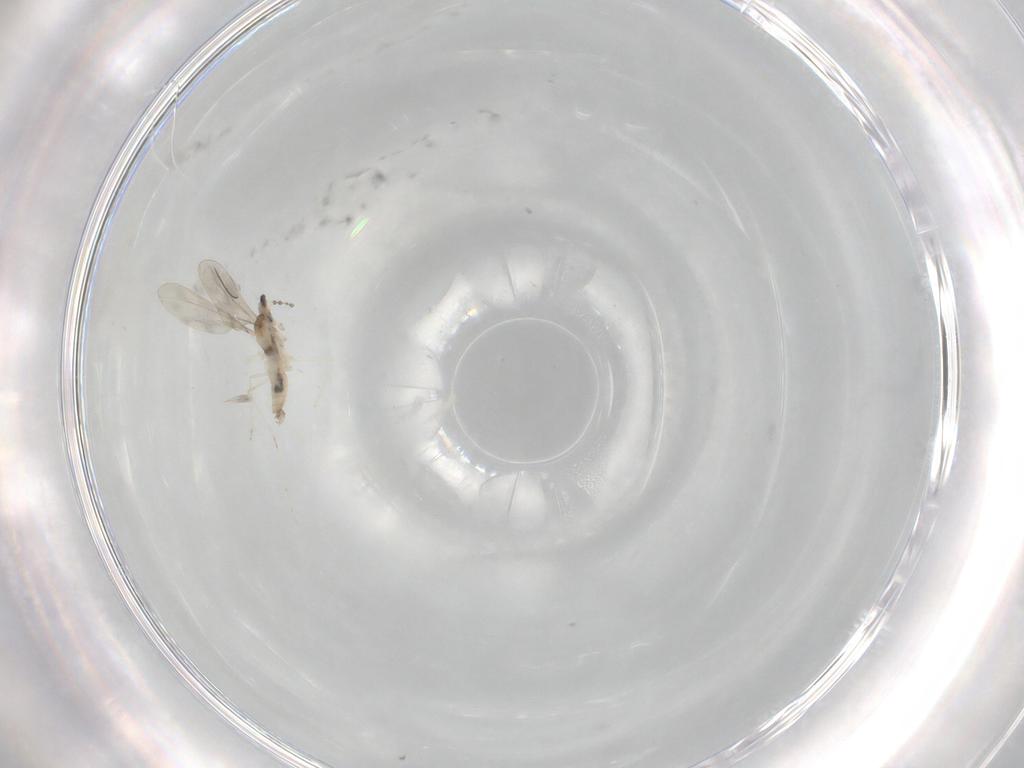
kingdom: Animalia
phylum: Arthropoda
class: Insecta
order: Diptera
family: Cecidomyiidae
